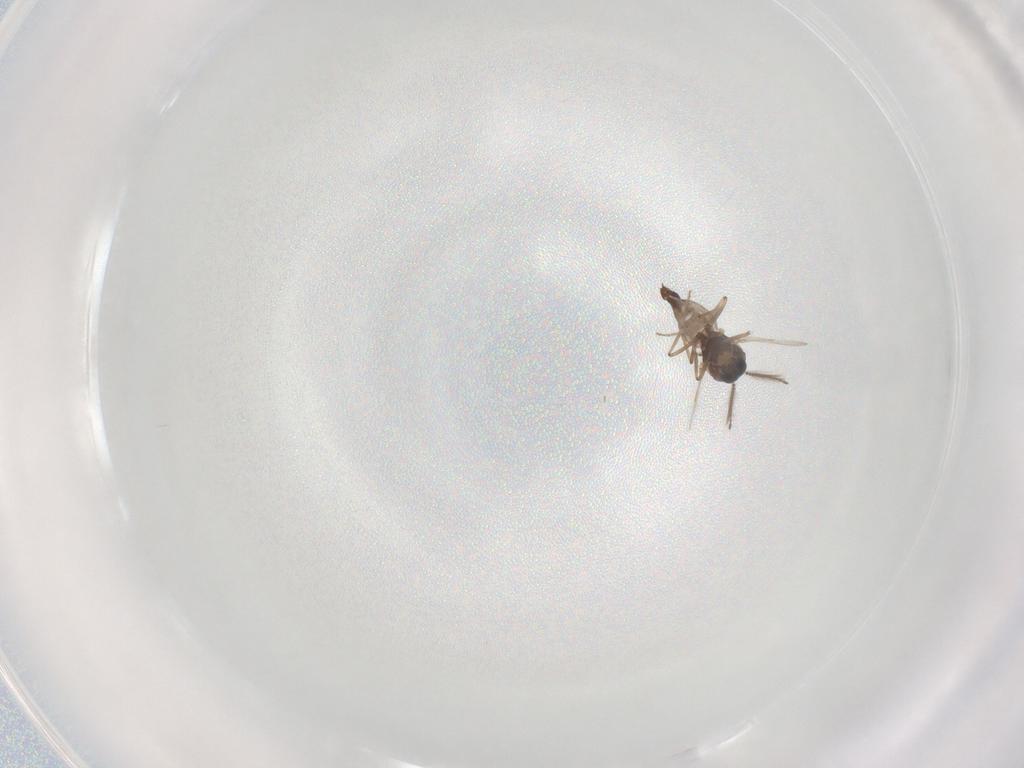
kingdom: Animalia
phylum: Arthropoda
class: Insecta
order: Diptera
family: Ceratopogonidae
